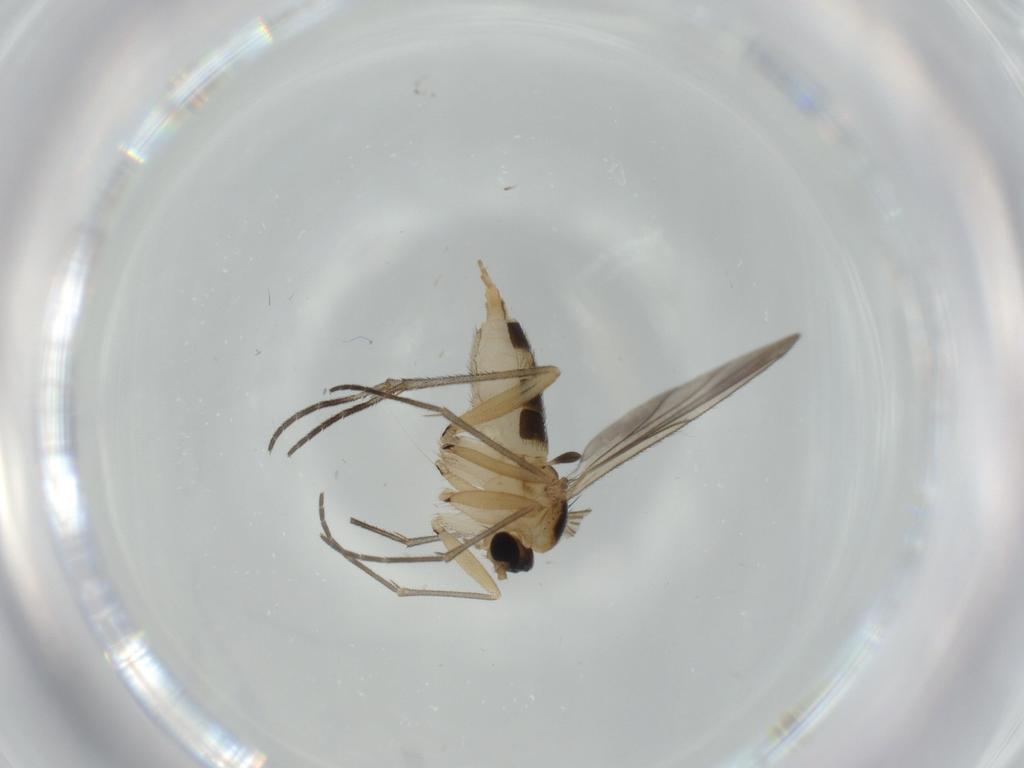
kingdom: Animalia
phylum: Arthropoda
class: Insecta
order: Diptera
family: Sciaridae
